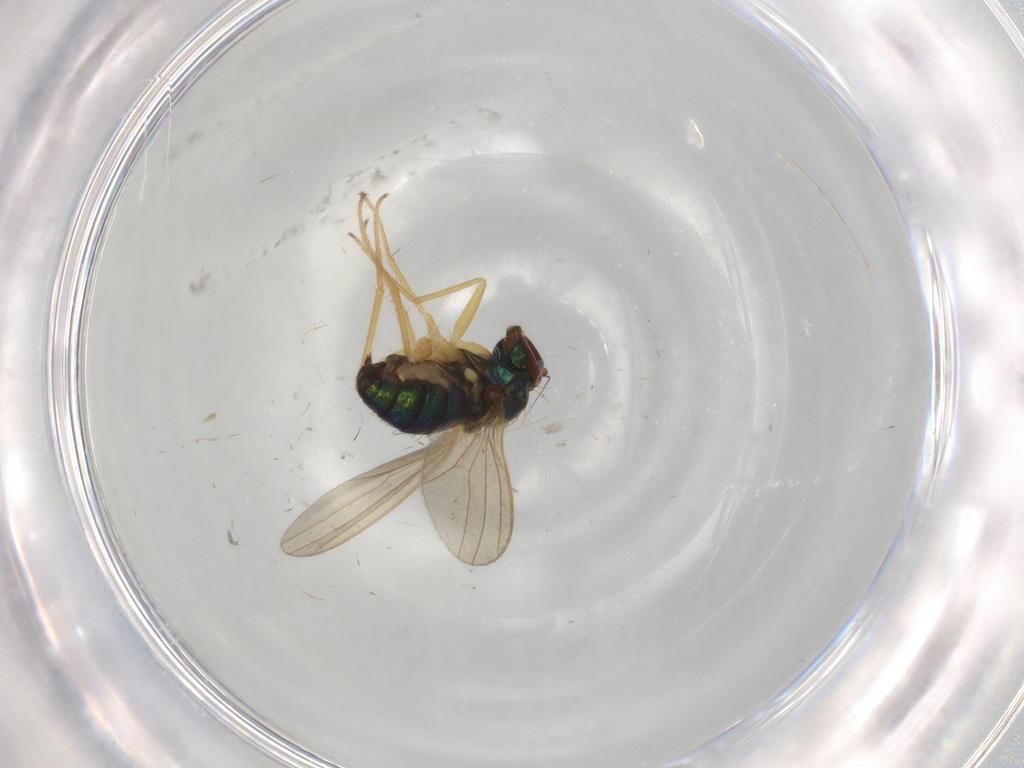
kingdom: Animalia
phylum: Arthropoda
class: Insecta
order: Diptera
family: Dolichopodidae
